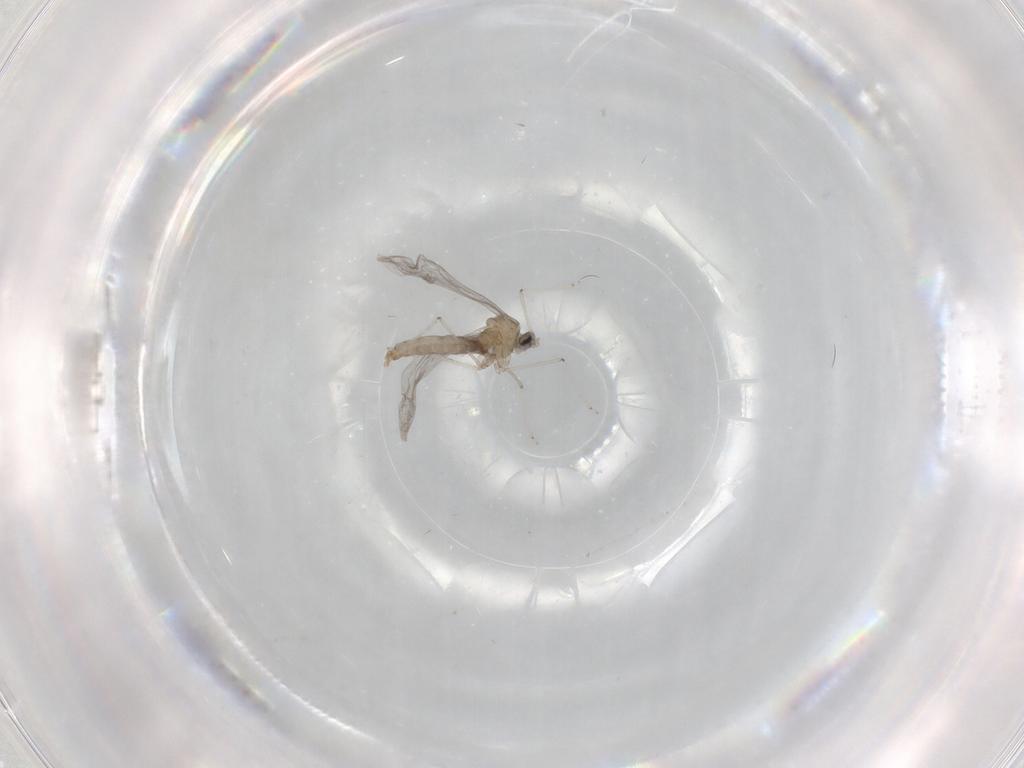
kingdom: Animalia
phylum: Arthropoda
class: Insecta
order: Diptera
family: Cecidomyiidae
